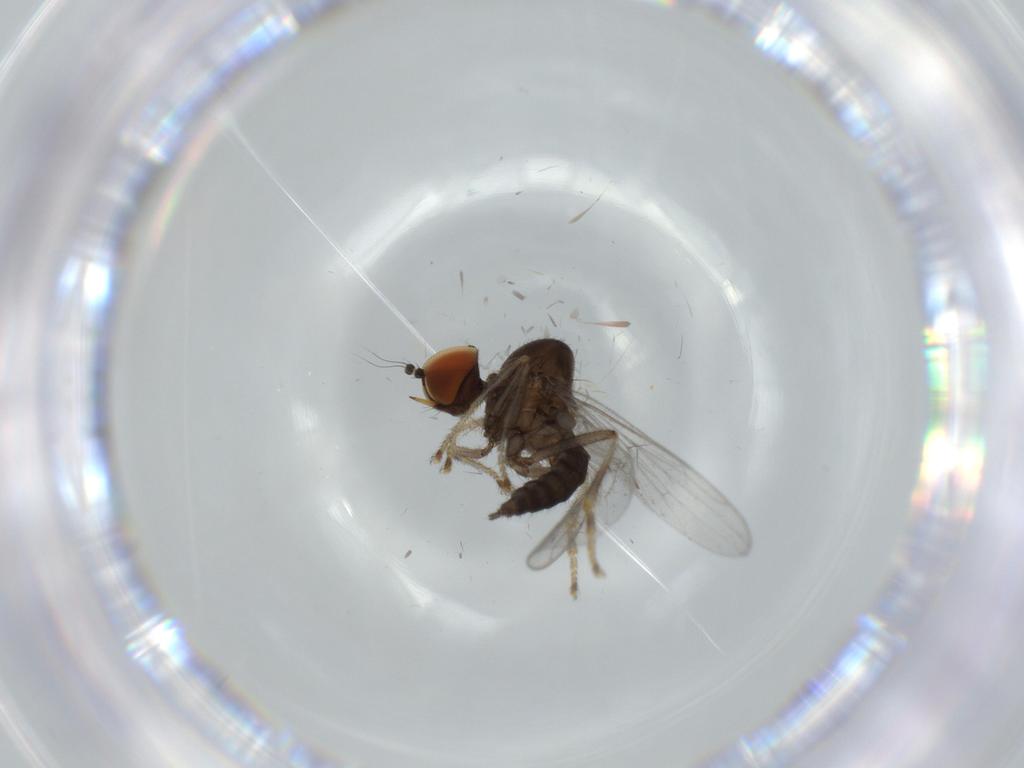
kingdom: Animalia
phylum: Arthropoda
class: Insecta
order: Diptera
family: Hybotidae
